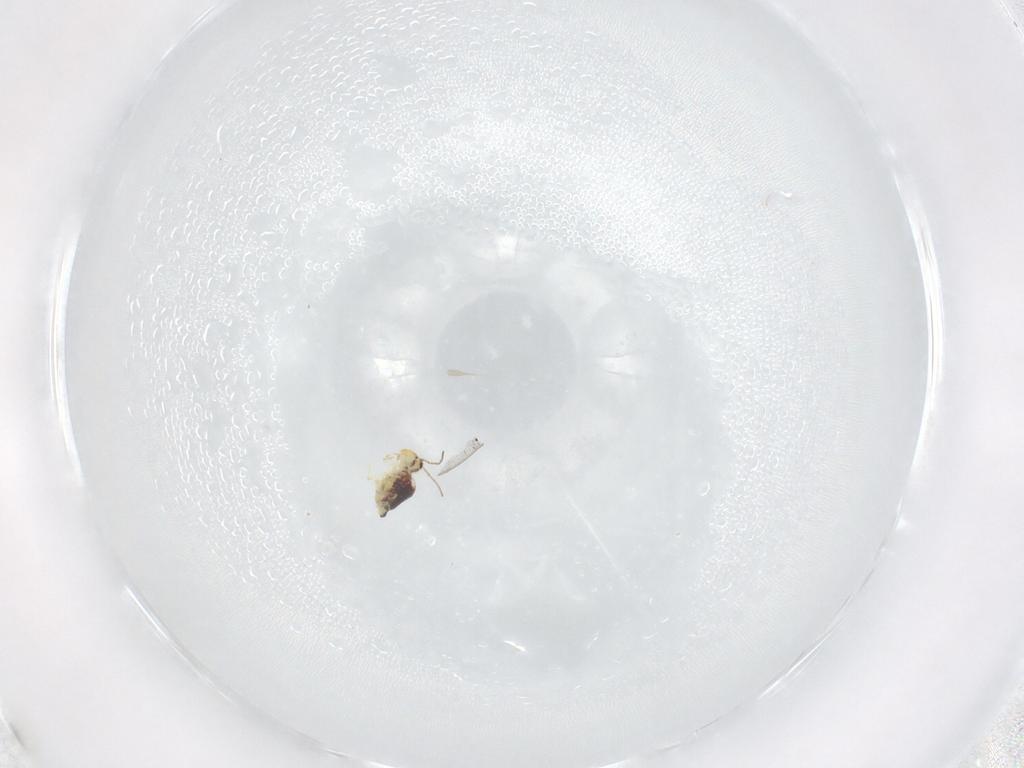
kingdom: Animalia
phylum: Arthropoda
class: Collembola
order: Symphypleona
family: Bourletiellidae
